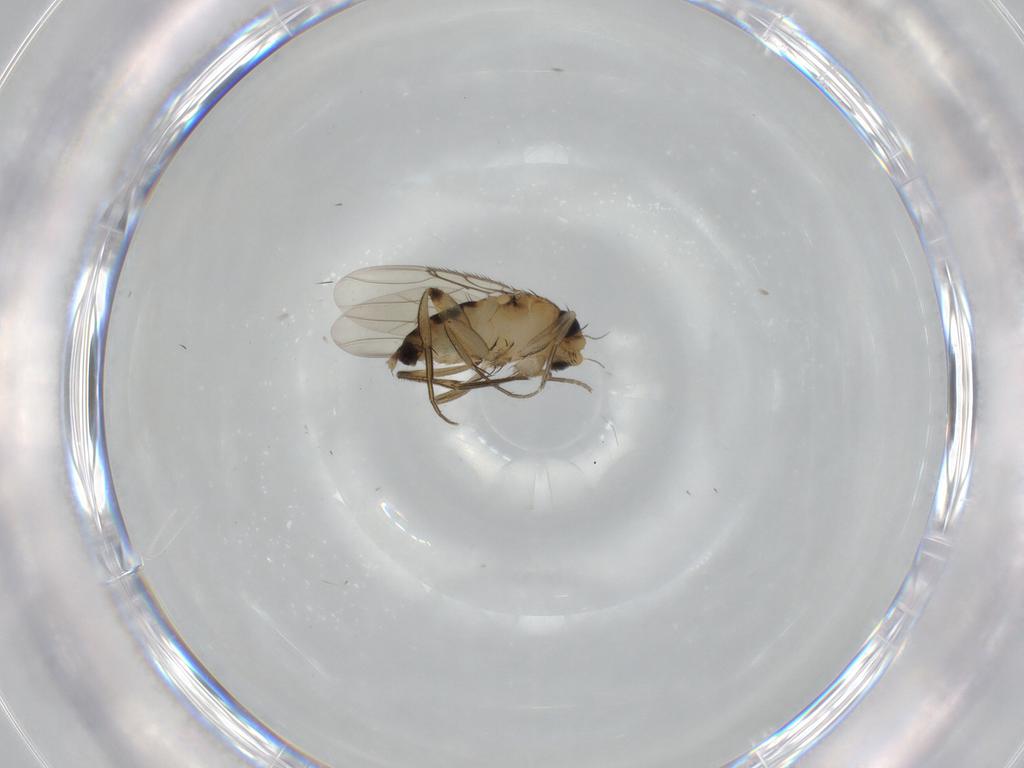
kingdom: Animalia
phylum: Arthropoda
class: Insecta
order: Diptera
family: Phoridae
